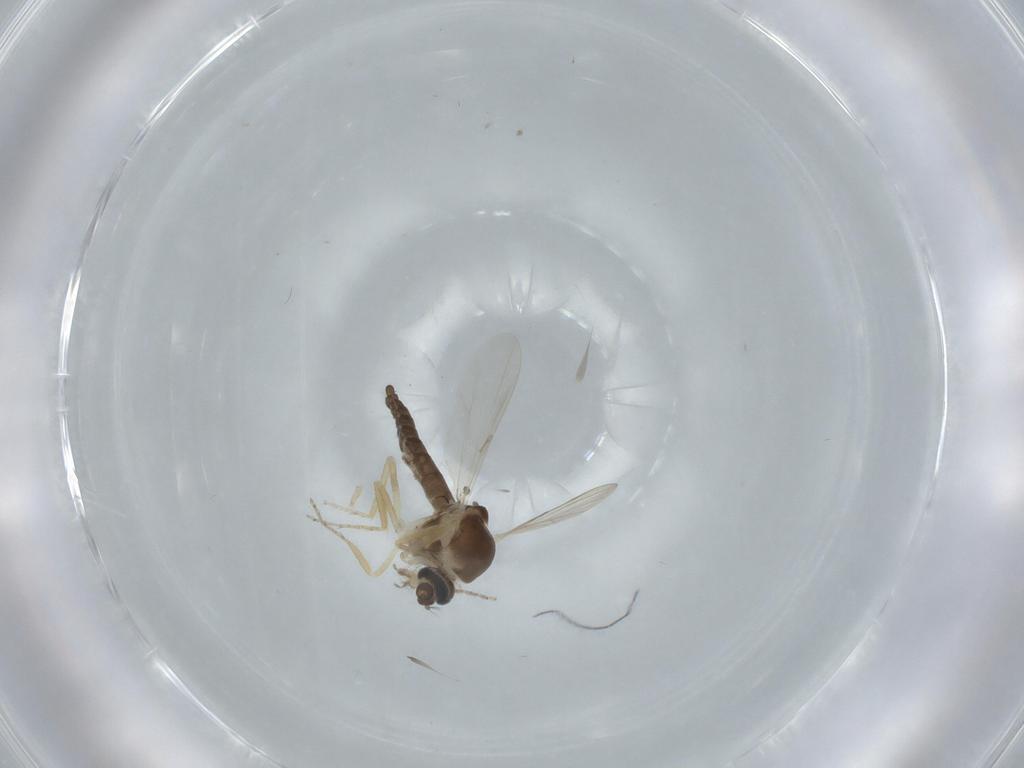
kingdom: Animalia
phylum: Arthropoda
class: Insecta
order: Diptera
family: Ceratopogonidae
